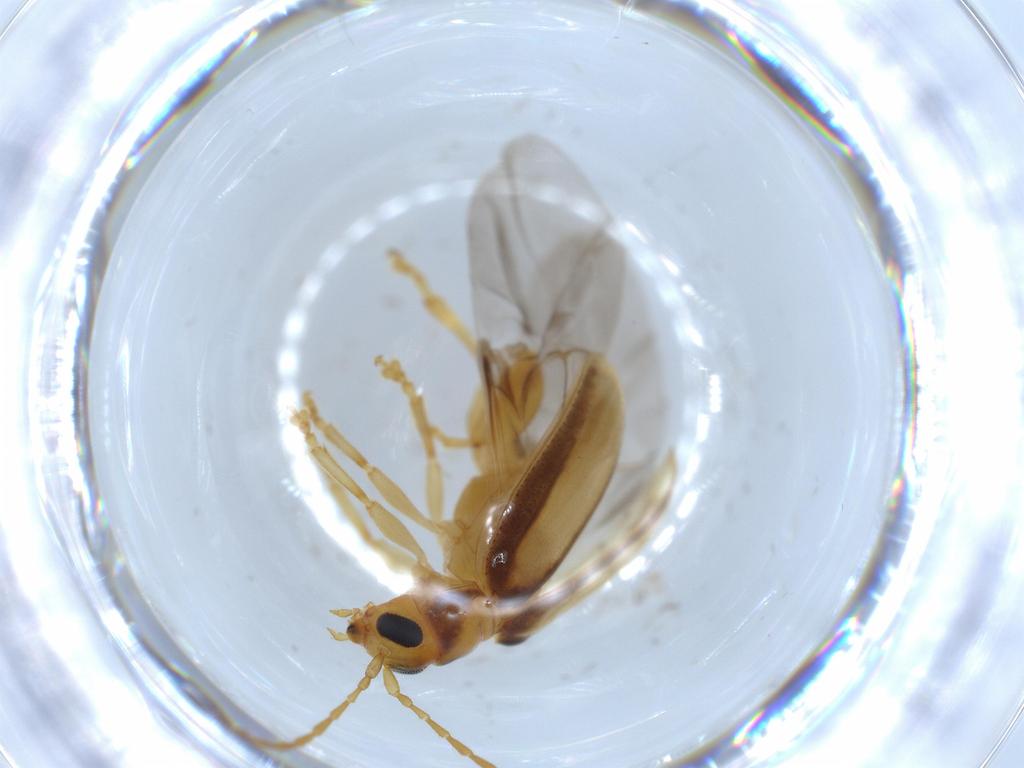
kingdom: Animalia
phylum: Arthropoda
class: Insecta
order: Coleoptera
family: Chrysomelidae
